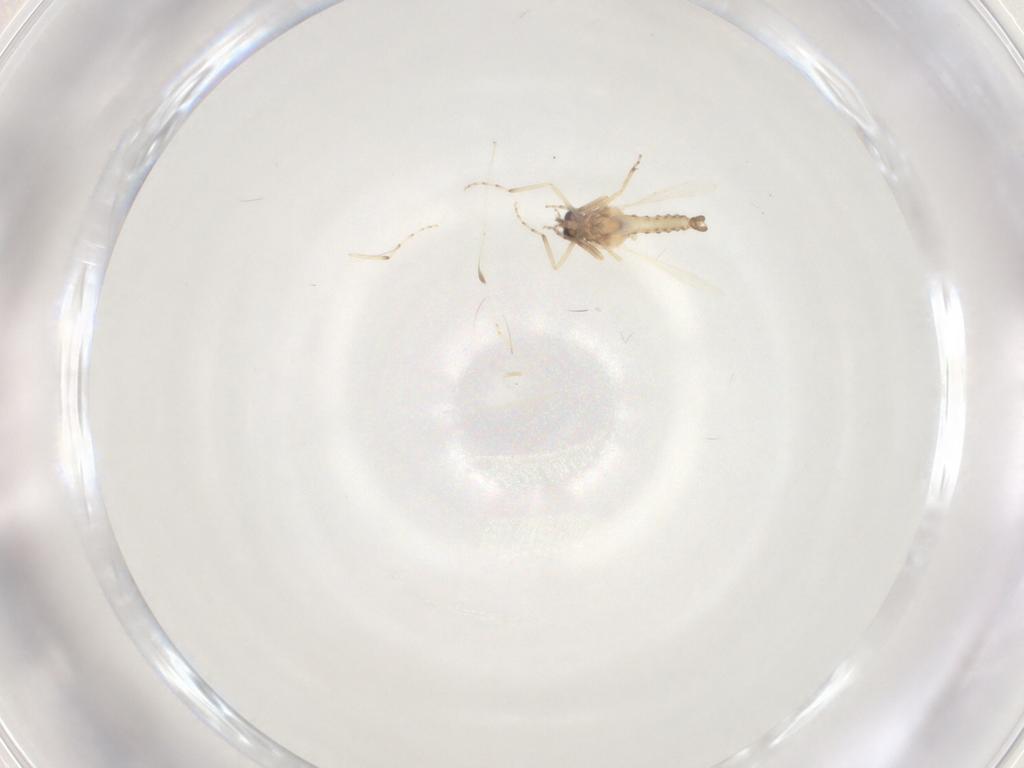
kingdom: Animalia
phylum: Arthropoda
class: Insecta
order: Diptera
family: Cecidomyiidae
